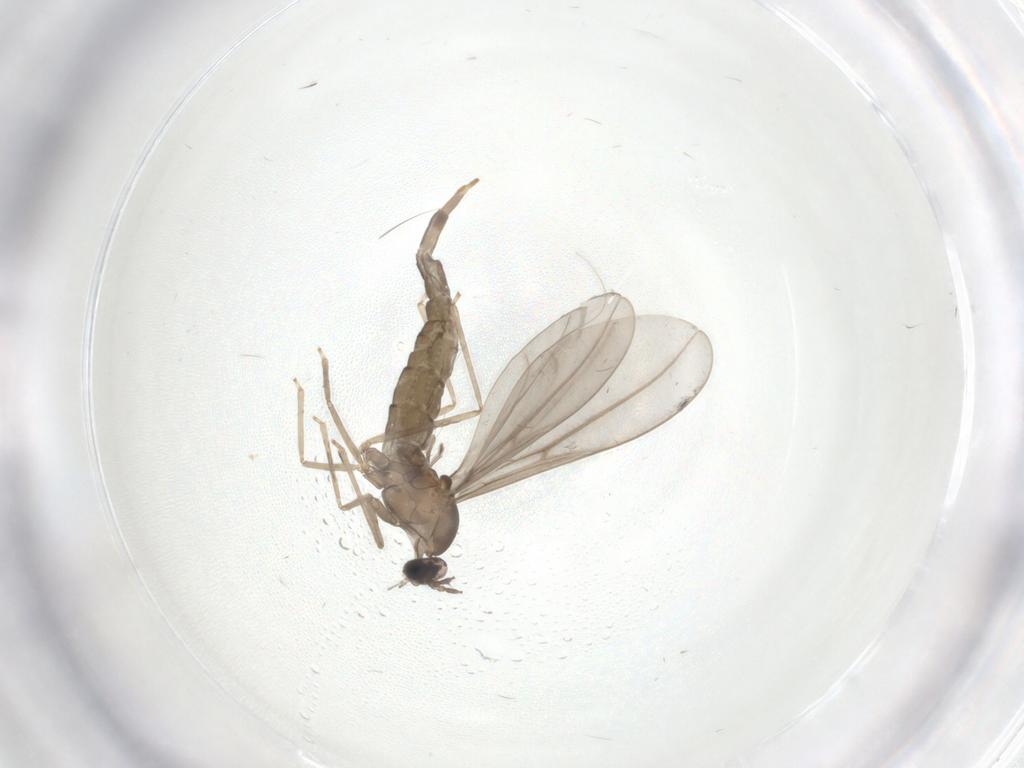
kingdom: Animalia
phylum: Arthropoda
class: Insecta
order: Diptera
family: Cecidomyiidae
